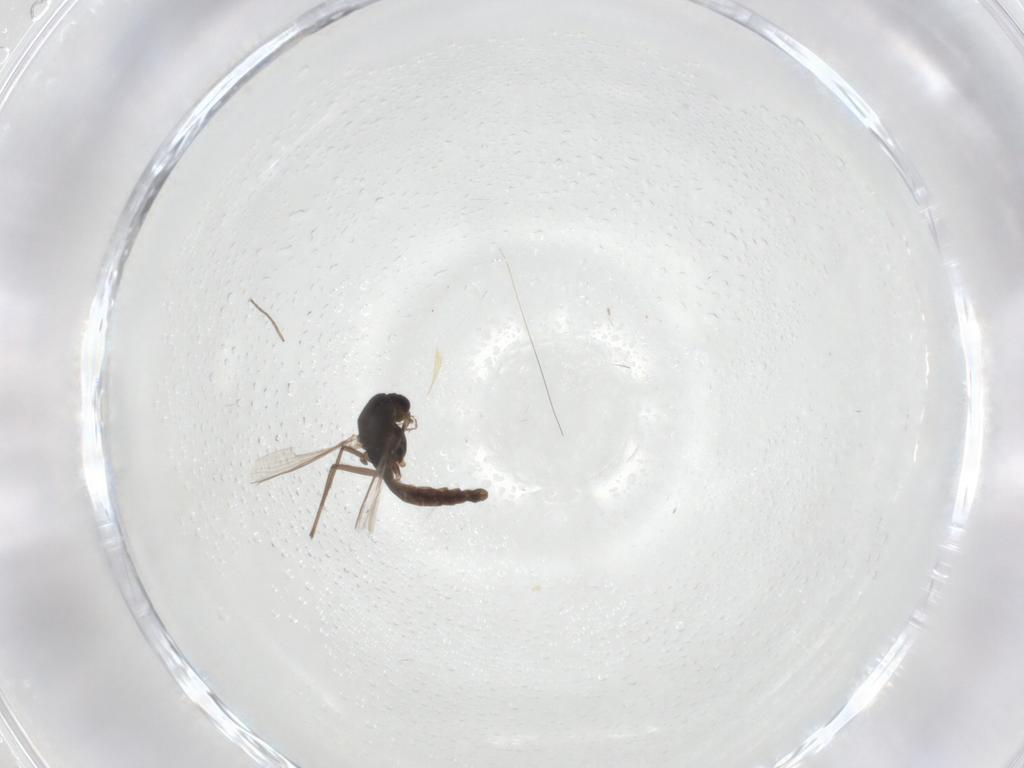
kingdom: Animalia
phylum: Arthropoda
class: Insecta
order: Diptera
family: Chironomidae
